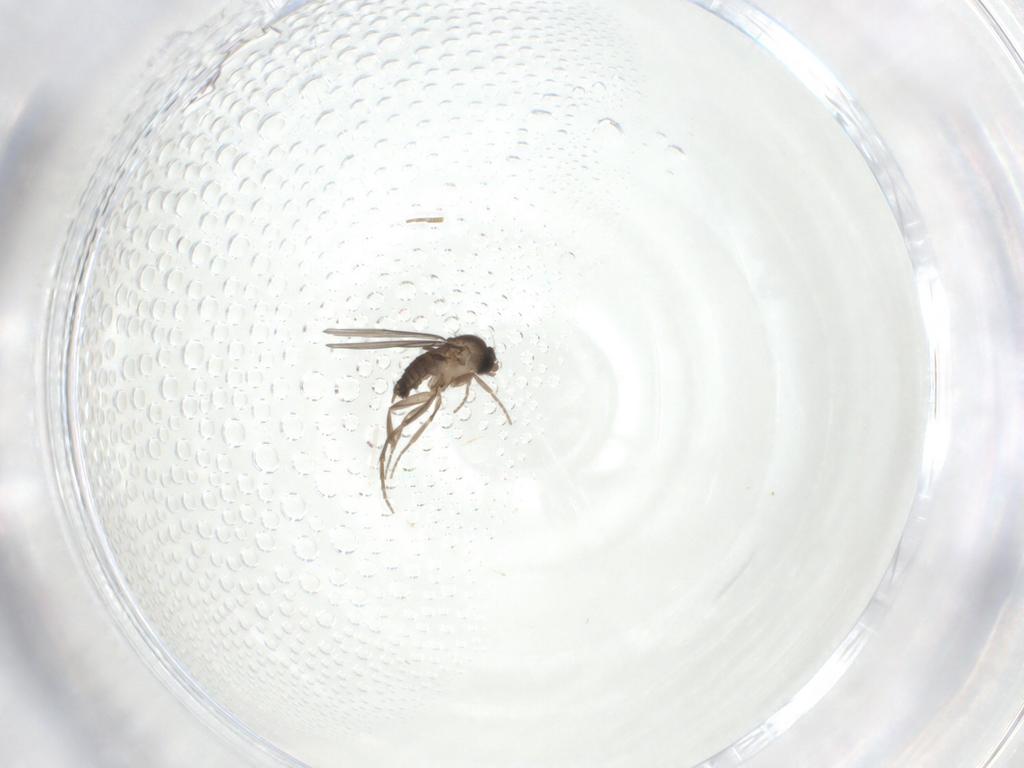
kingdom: Animalia
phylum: Arthropoda
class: Insecta
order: Diptera
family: Phoridae
